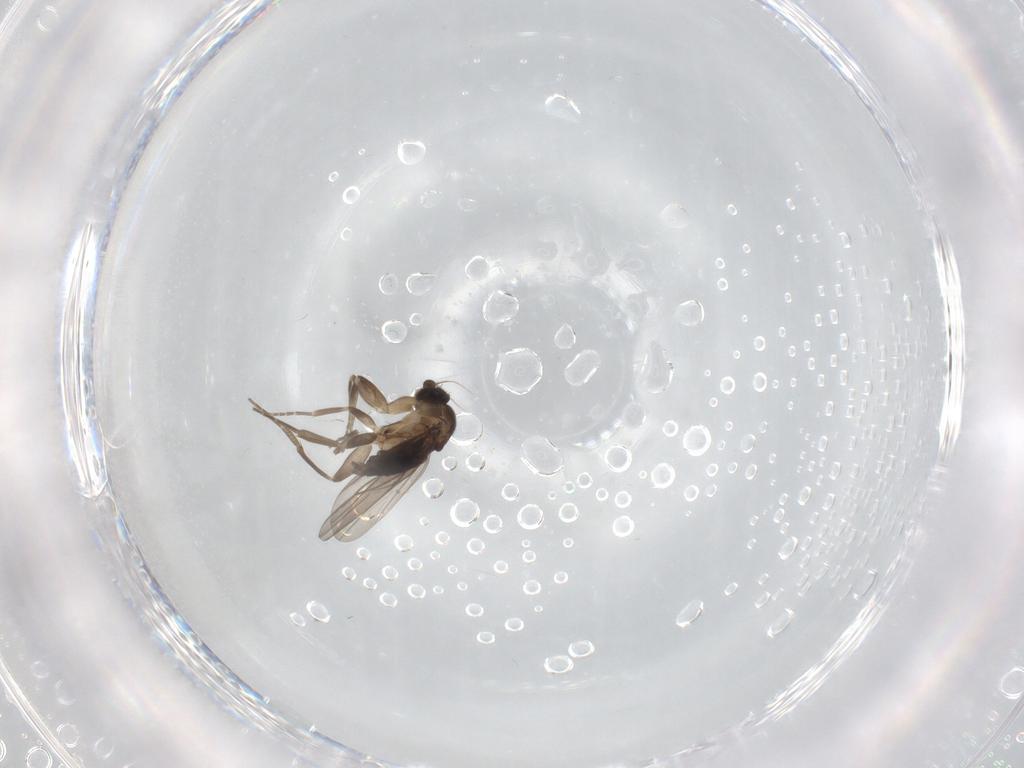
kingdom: Animalia
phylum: Arthropoda
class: Insecta
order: Diptera
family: Phoridae
